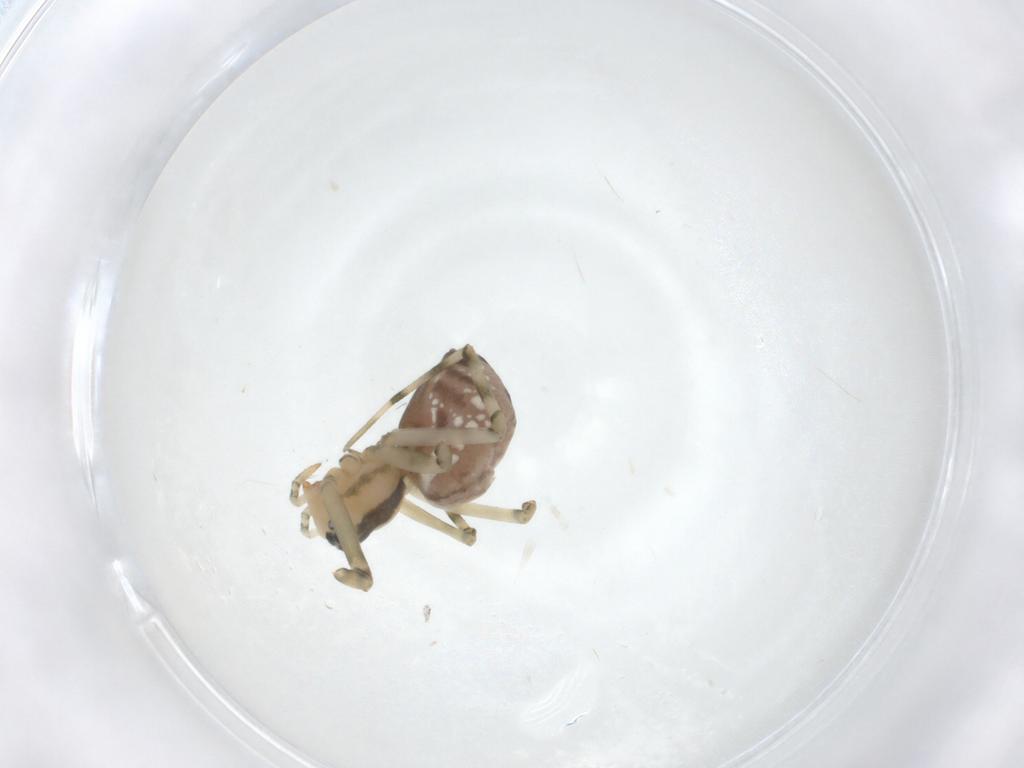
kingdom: Animalia
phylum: Arthropoda
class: Arachnida
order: Araneae
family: Linyphiidae
